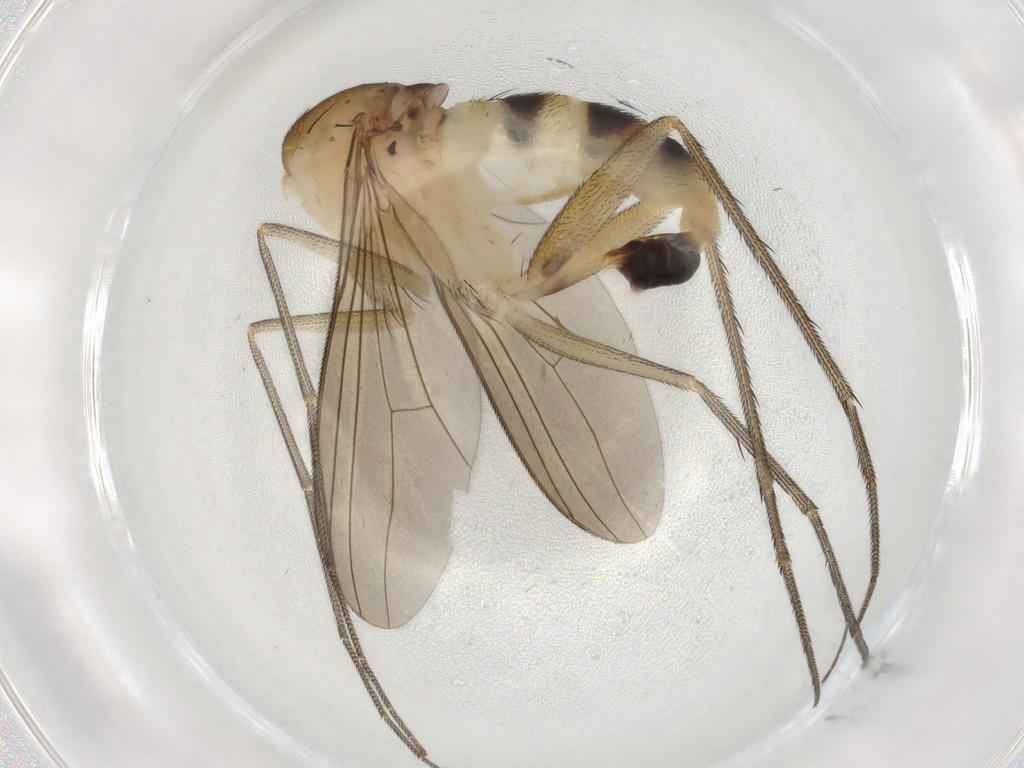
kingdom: Animalia
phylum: Arthropoda
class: Insecta
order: Diptera
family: Dolichopodidae
